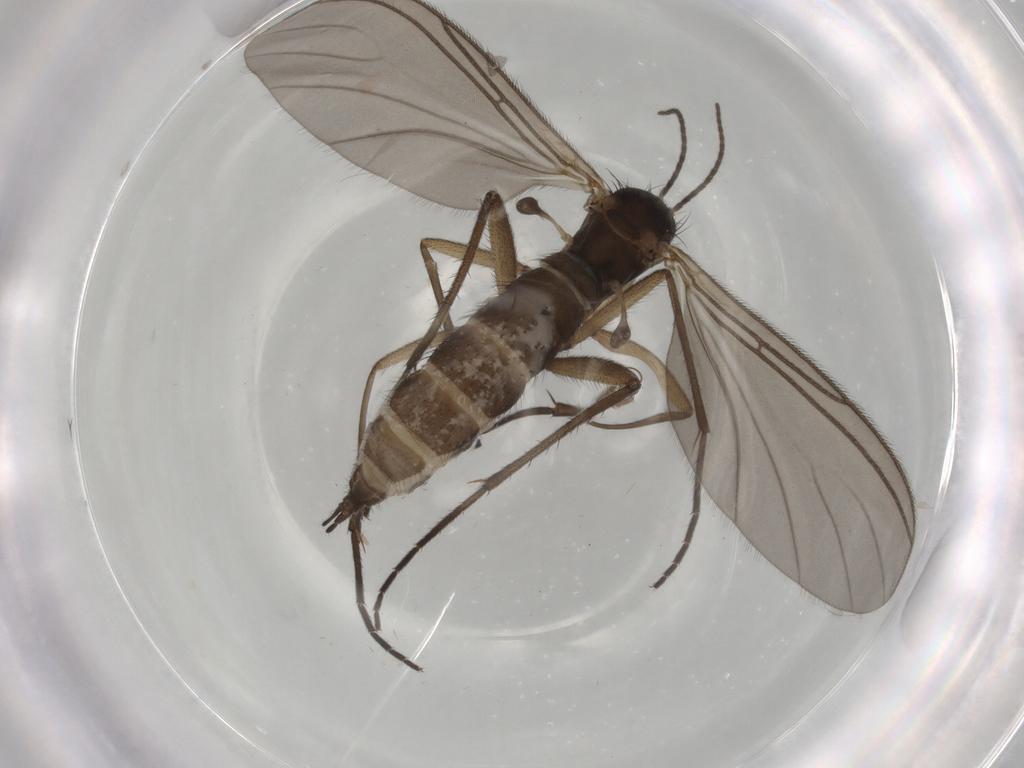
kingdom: Animalia
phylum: Arthropoda
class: Insecta
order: Diptera
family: Sciaridae
